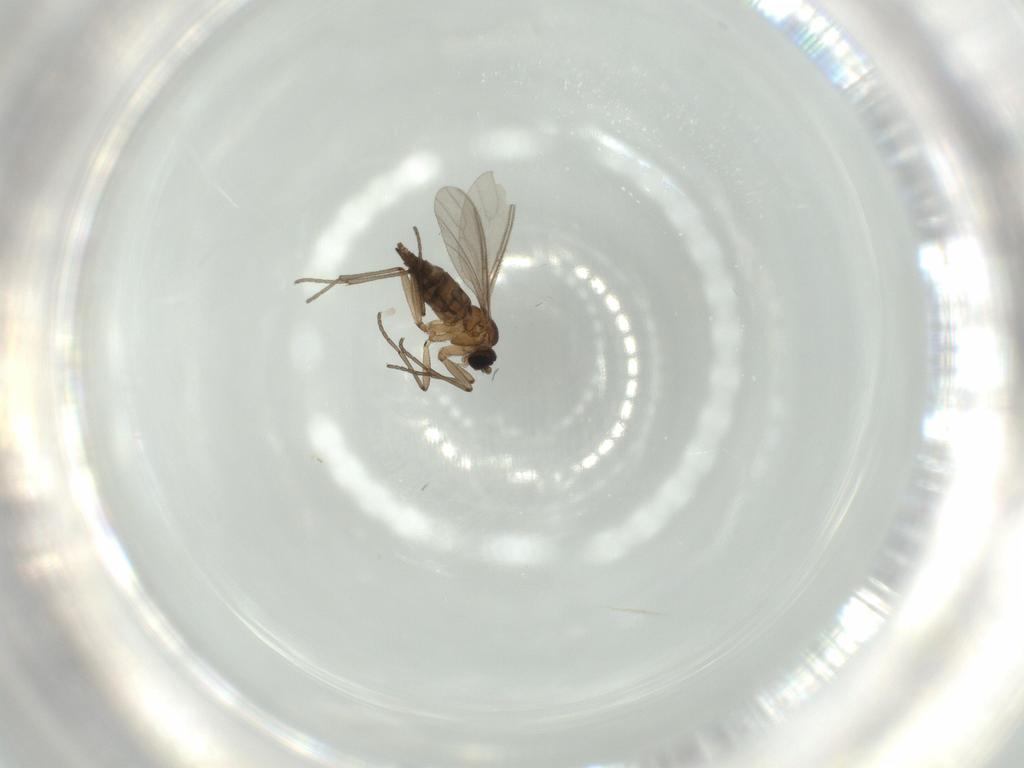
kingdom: Animalia
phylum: Arthropoda
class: Insecta
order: Diptera
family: Sciaridae
